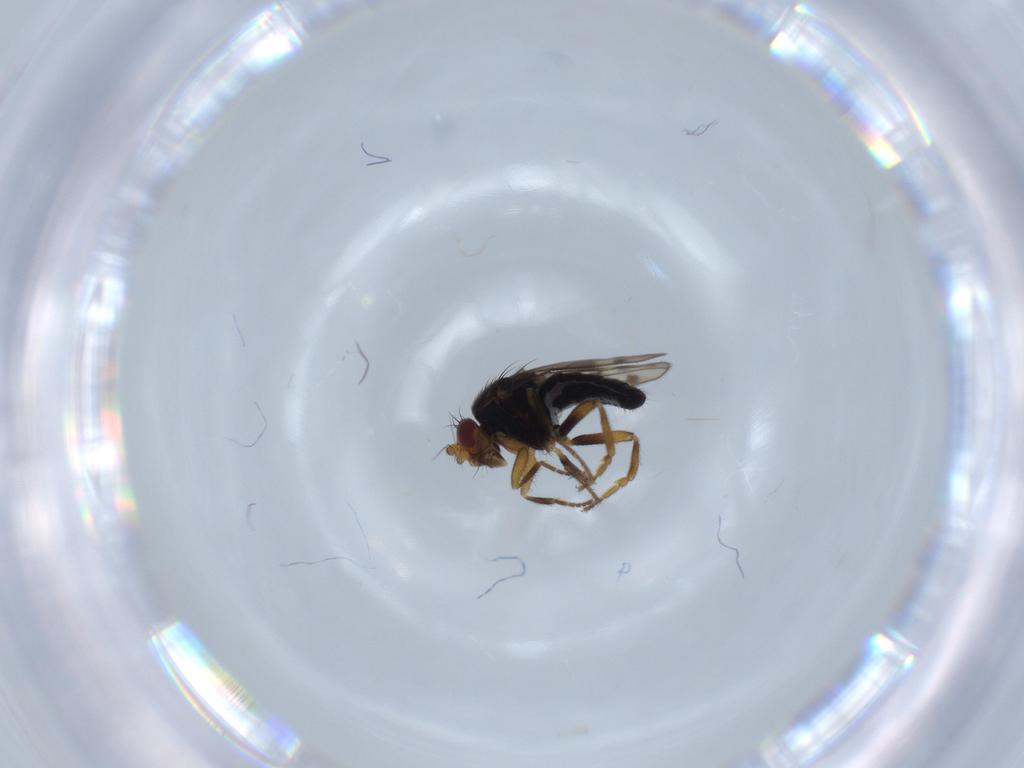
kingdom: Animalia
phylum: Arthropoda
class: Insecta
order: Diptera
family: Sphaeroceridae
